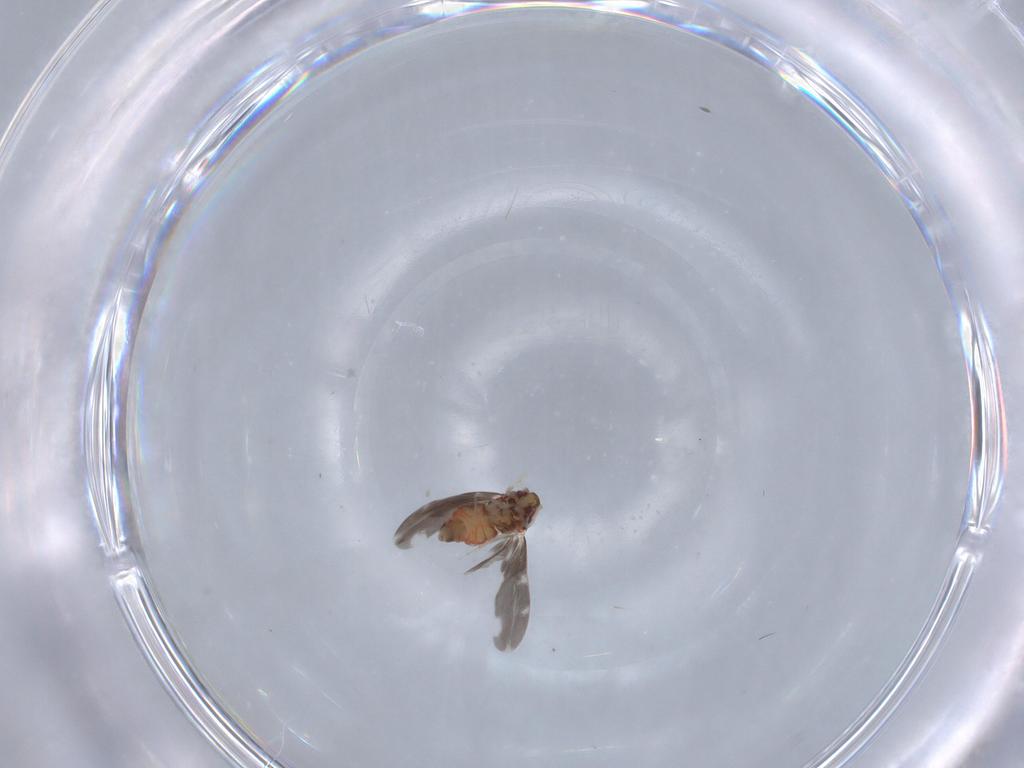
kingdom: Animalia
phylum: Arthropoda
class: Insecta
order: Hemiptera
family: Aleyrodidae
